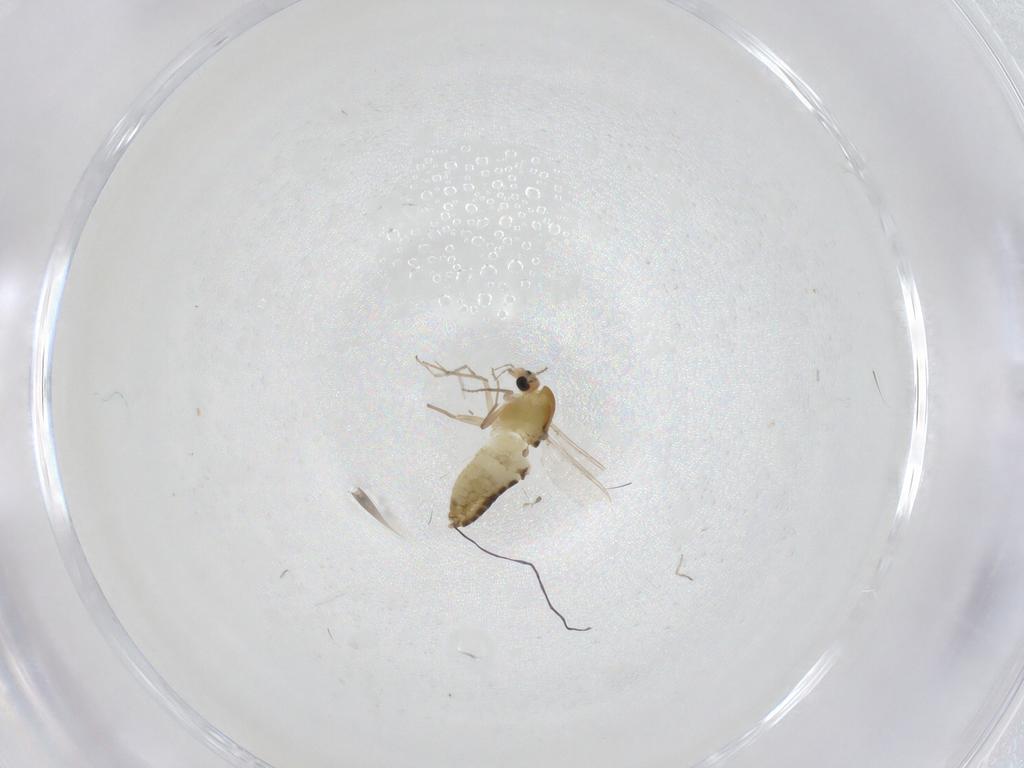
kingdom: Animalia
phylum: Arthropoda
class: Insecta
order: Diptera
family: Chironomidae
